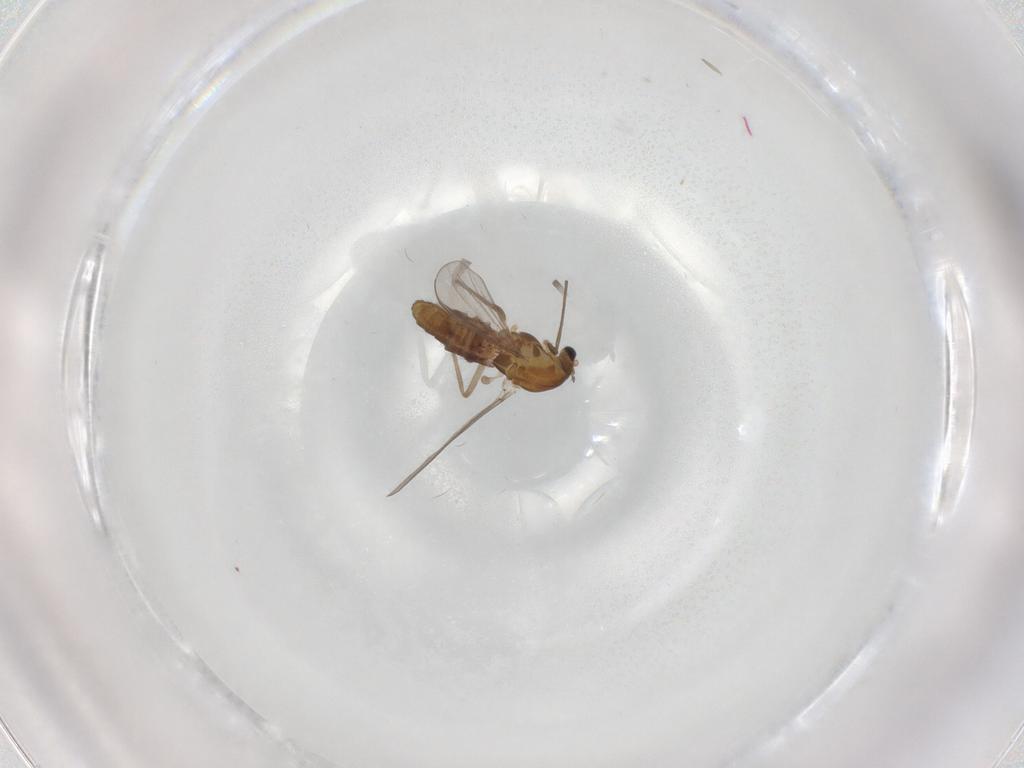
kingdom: Animalia
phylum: Arthropoda
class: Insecta
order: Diptera
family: Chironomidae
